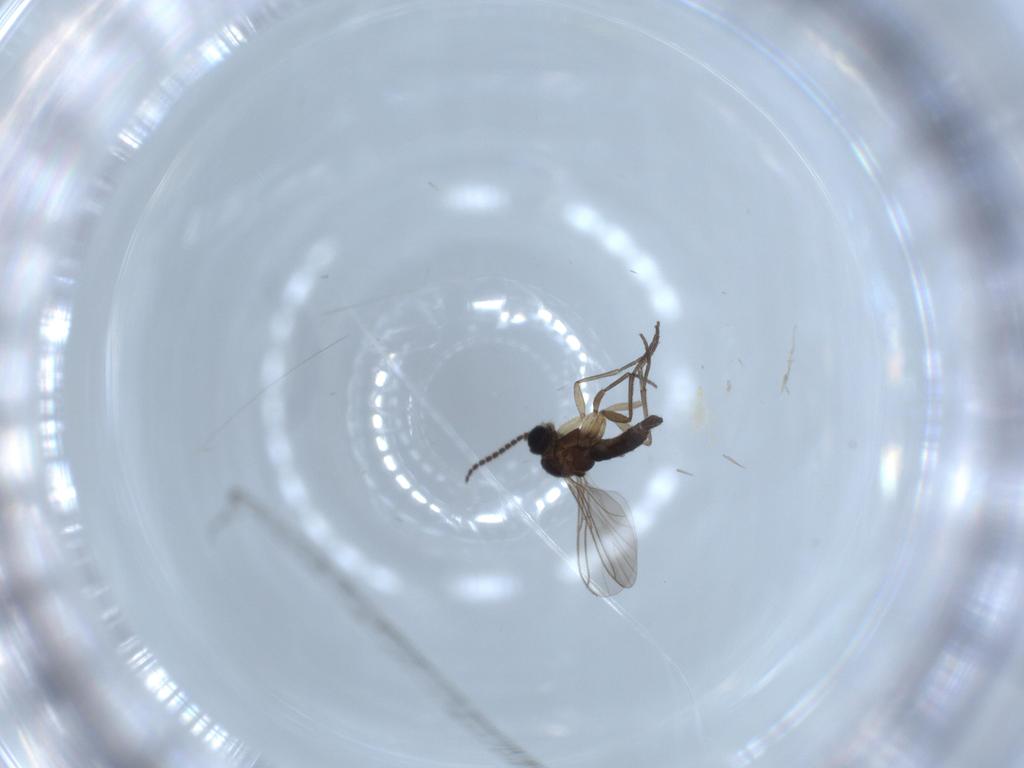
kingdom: Animalia
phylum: Arthropoda
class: Insecta
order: Diptera
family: Sciaridae
